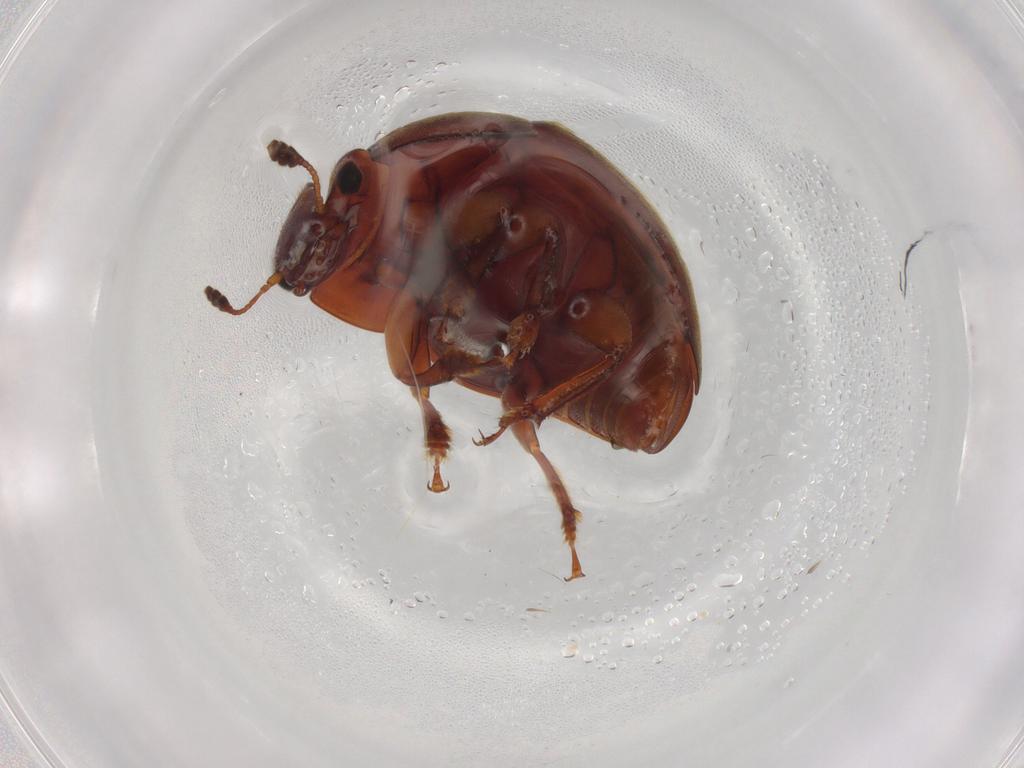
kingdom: Animalia
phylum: Arthropoda
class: Insecta
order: Coleoptera
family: Nitidulidae
